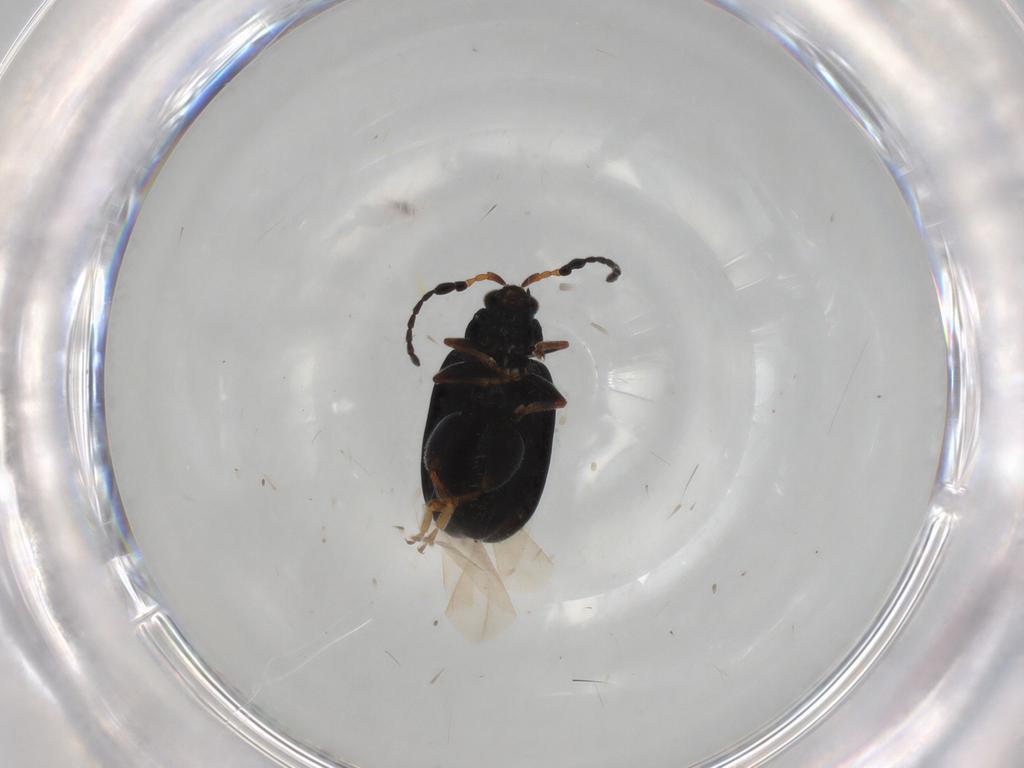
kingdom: Animalia
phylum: Arthropoda
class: Insecta
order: Coleoptera
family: Chrysomelidae
